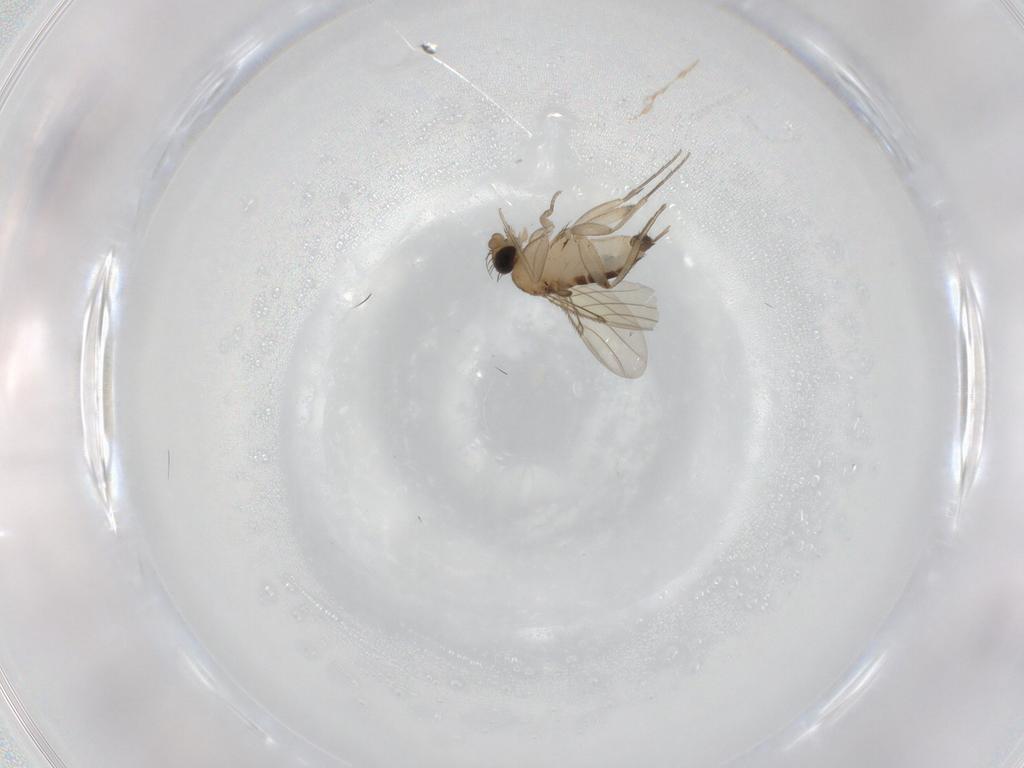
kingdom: Animalia
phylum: Arthropoda
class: Insecta
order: Diptera
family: Phoridae
